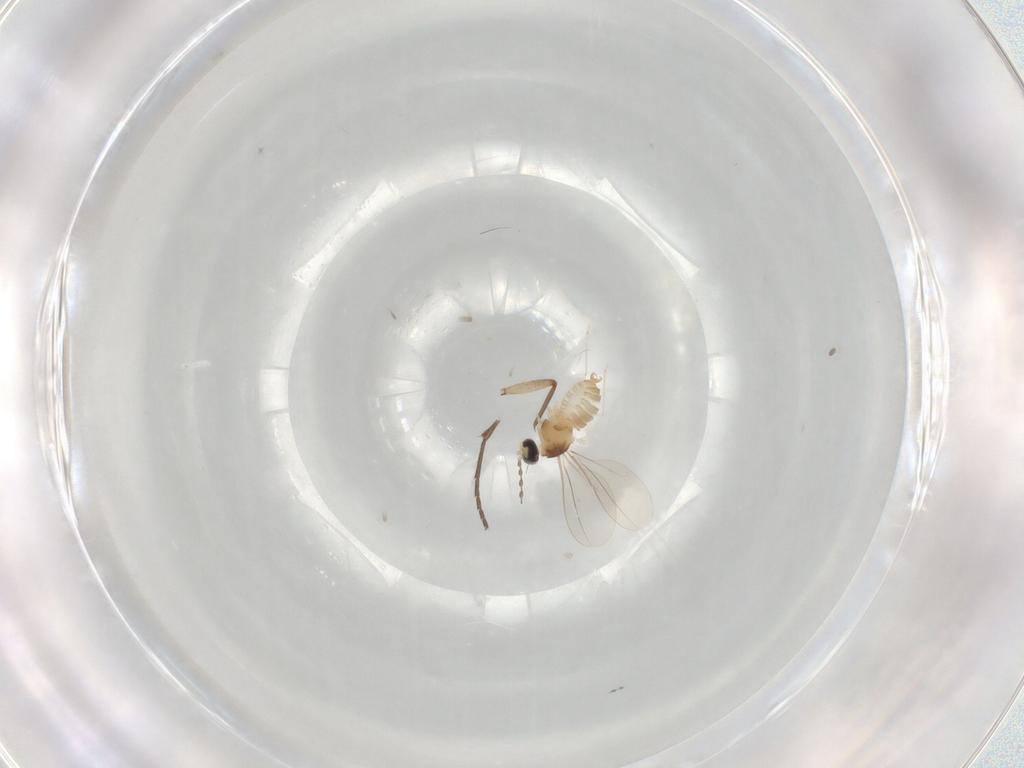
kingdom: Animalia
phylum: Arthropoda
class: Insecta
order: Diptera
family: Cecidomyiidae
